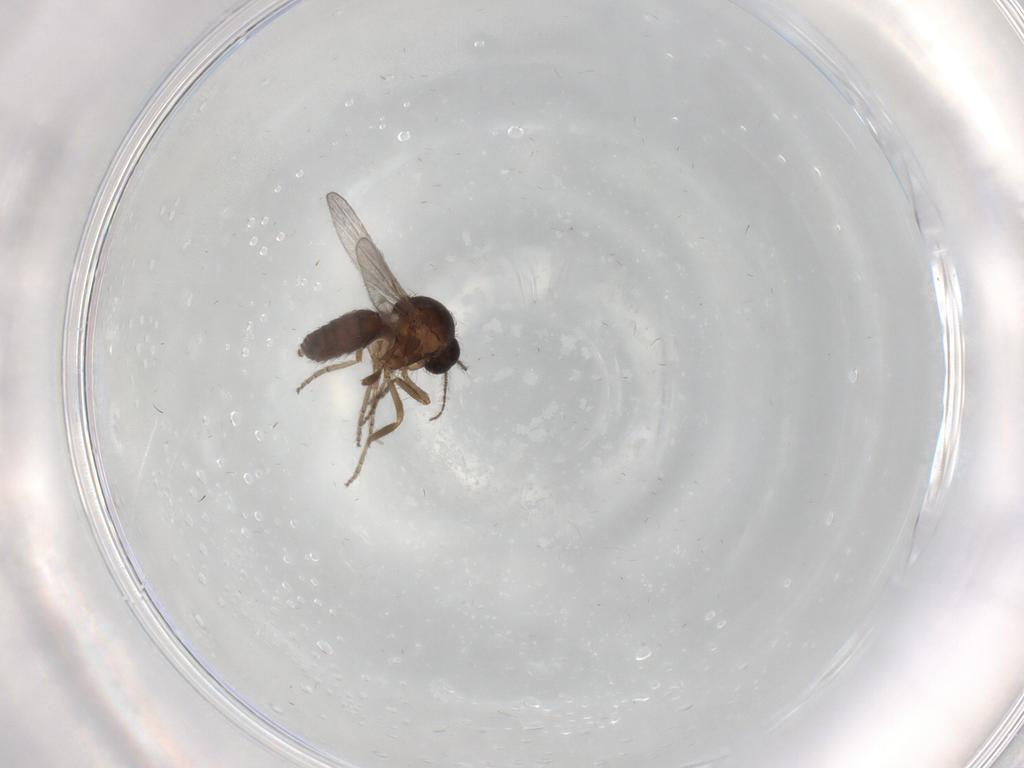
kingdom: Animalia
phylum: Arthropoda
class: Insecta
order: Diptera
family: Ceratopogonidae
